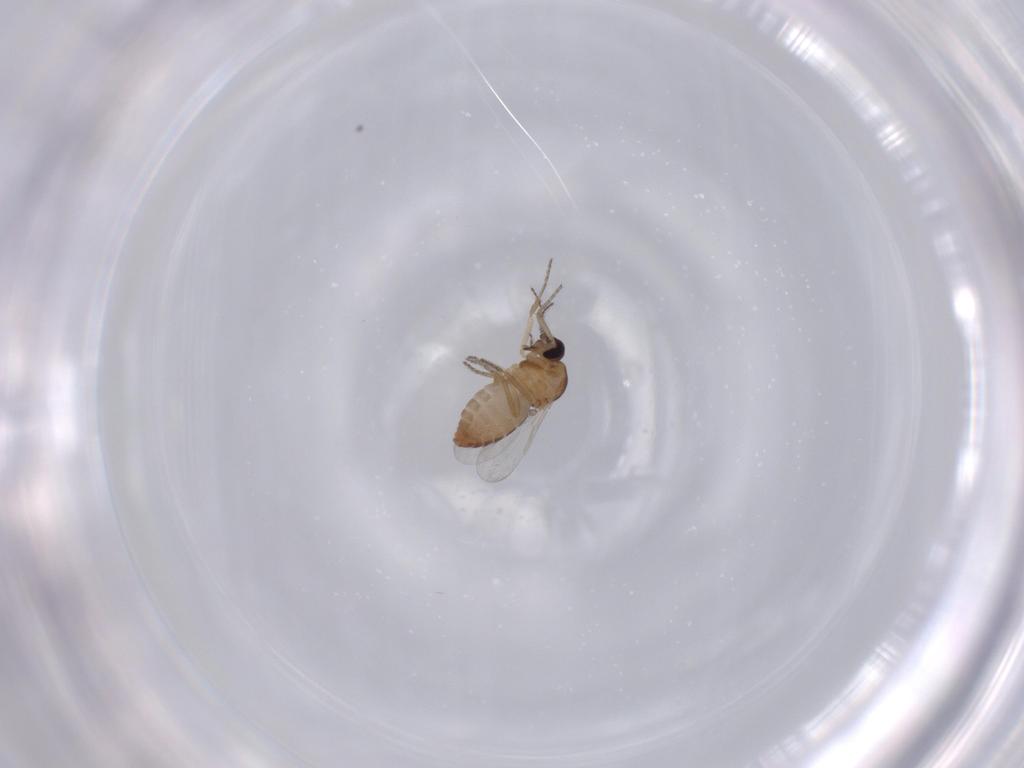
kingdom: Animalia
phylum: Arthropoda
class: Insecta
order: Diptera
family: Ceratopogonidae
